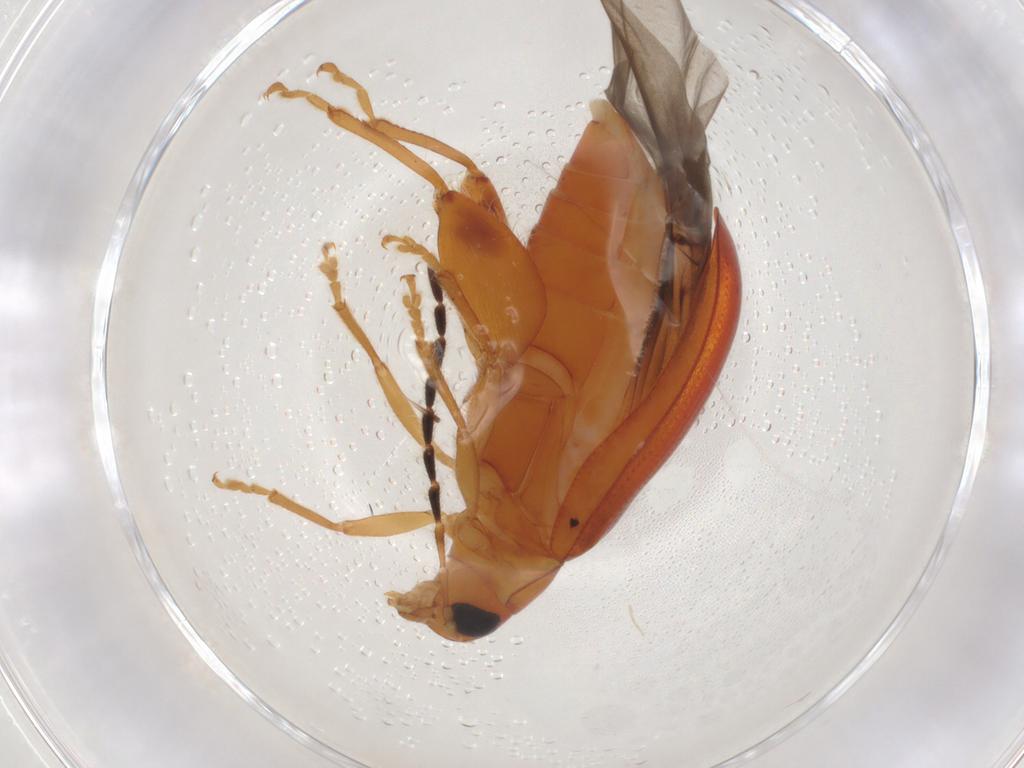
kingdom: Animalia
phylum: Arthropoda
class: Insecta
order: Coleoptera
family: Chrysomelidae
